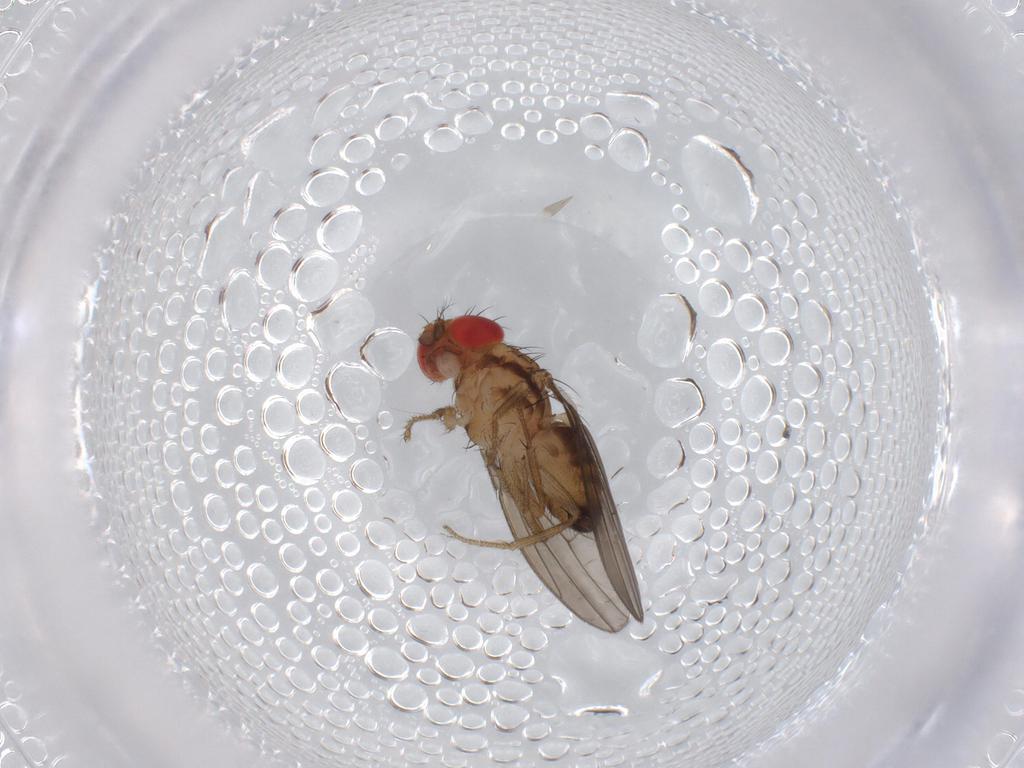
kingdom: Animalia
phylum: Arthropoda
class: Insecta
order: Diptera
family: Drosophilidae
